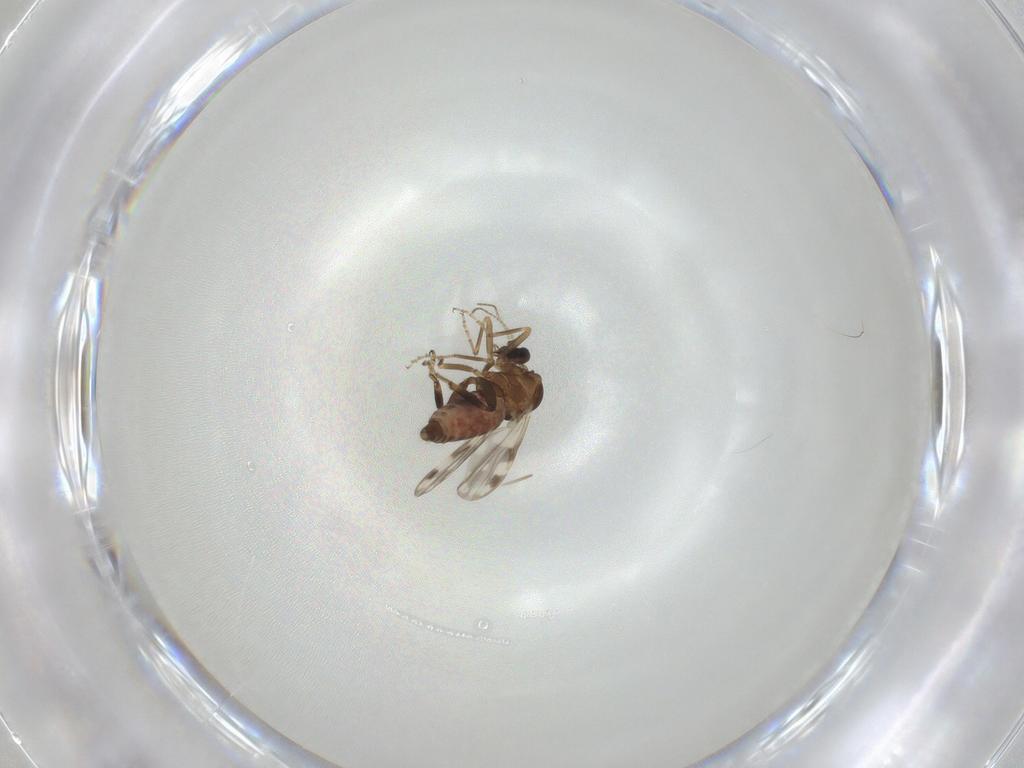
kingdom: Animalia
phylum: Arthropoda
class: Insecta
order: Diptera
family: Ceratopogonidae
